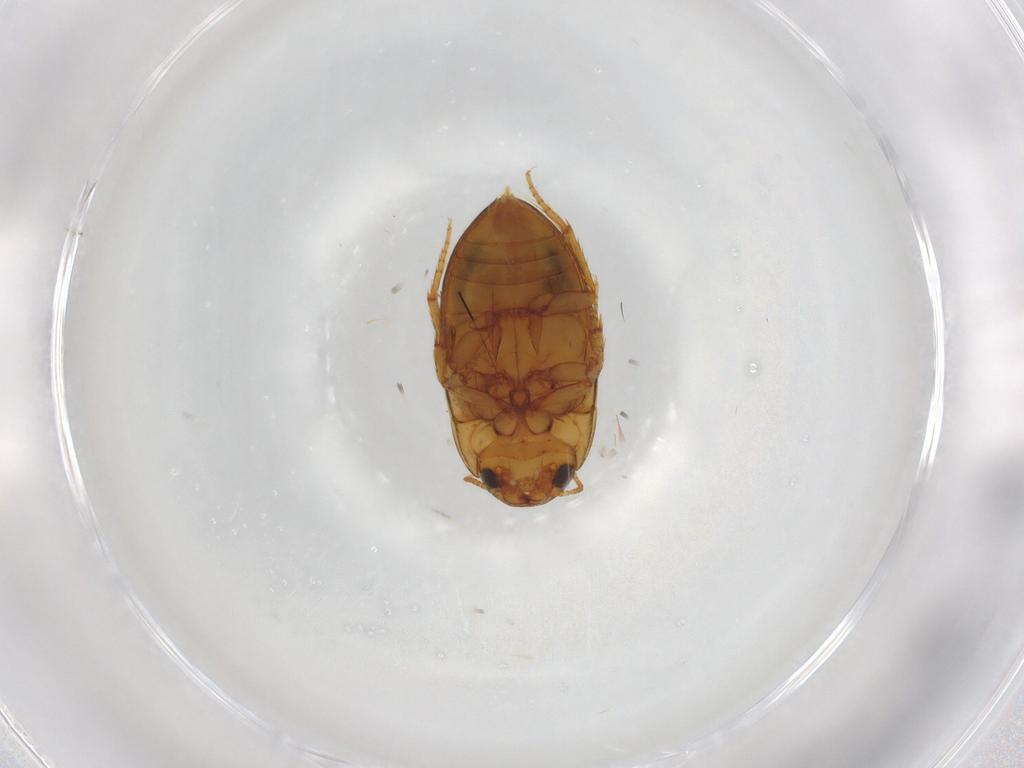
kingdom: Animalia
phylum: Arthropoda
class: Insecta
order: Coleoptera
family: Noteridae
